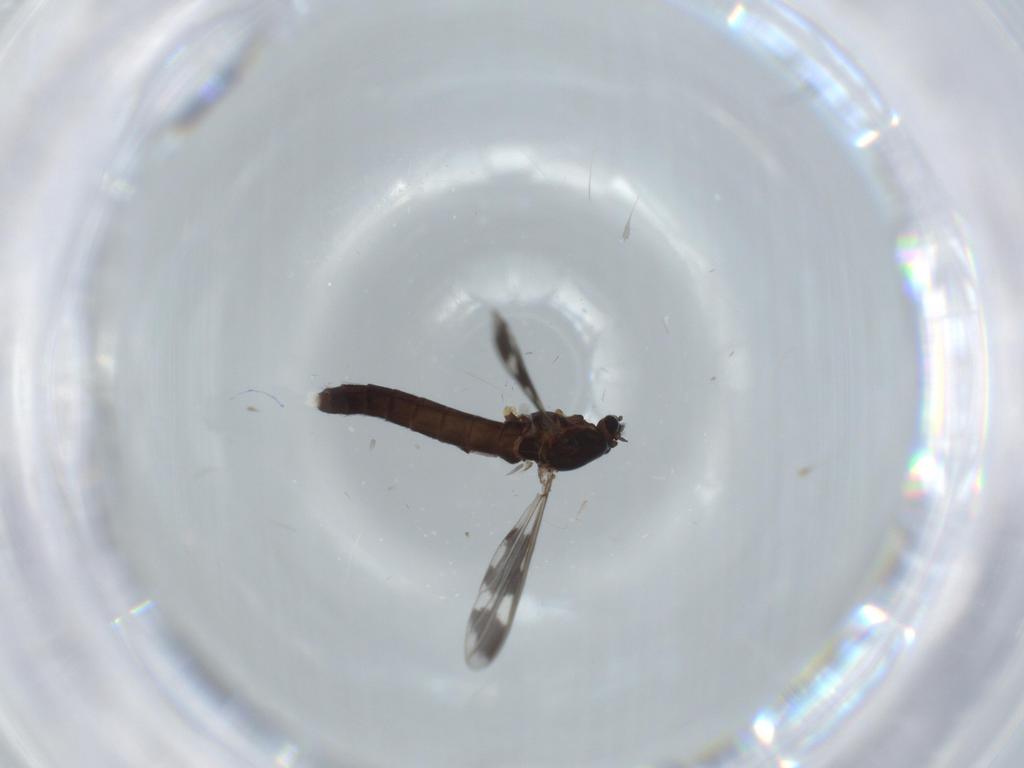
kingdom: Animalia
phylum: Arthropoda
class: Insecta
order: Diptera
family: Chironomidae
